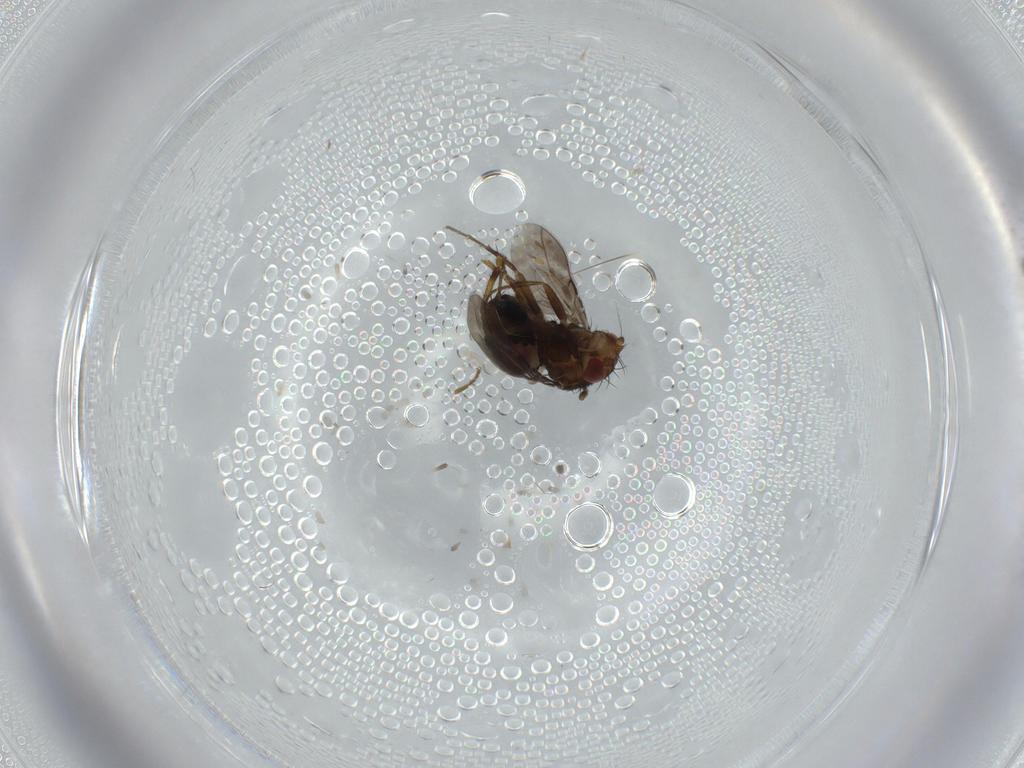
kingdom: Animalia
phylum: Arthropoda
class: Insecta
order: Diptera
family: Sphaeroceridae
